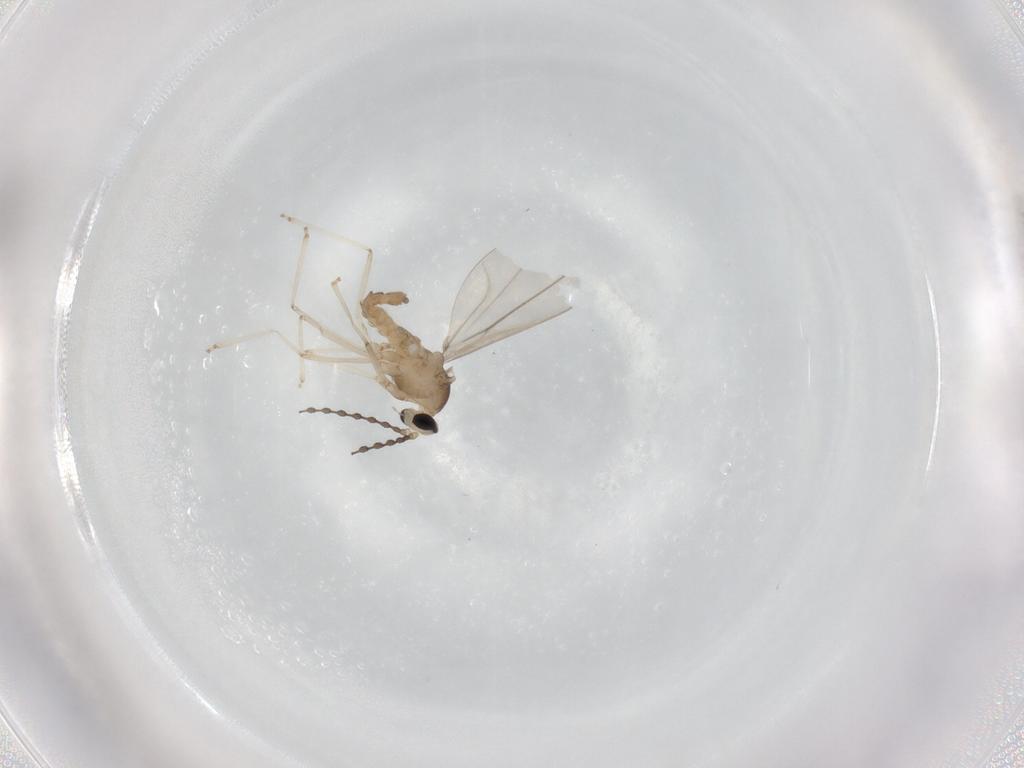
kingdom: Animalia
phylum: Arthropoda
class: Insecta
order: Diptera
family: Cecidomyiidae
